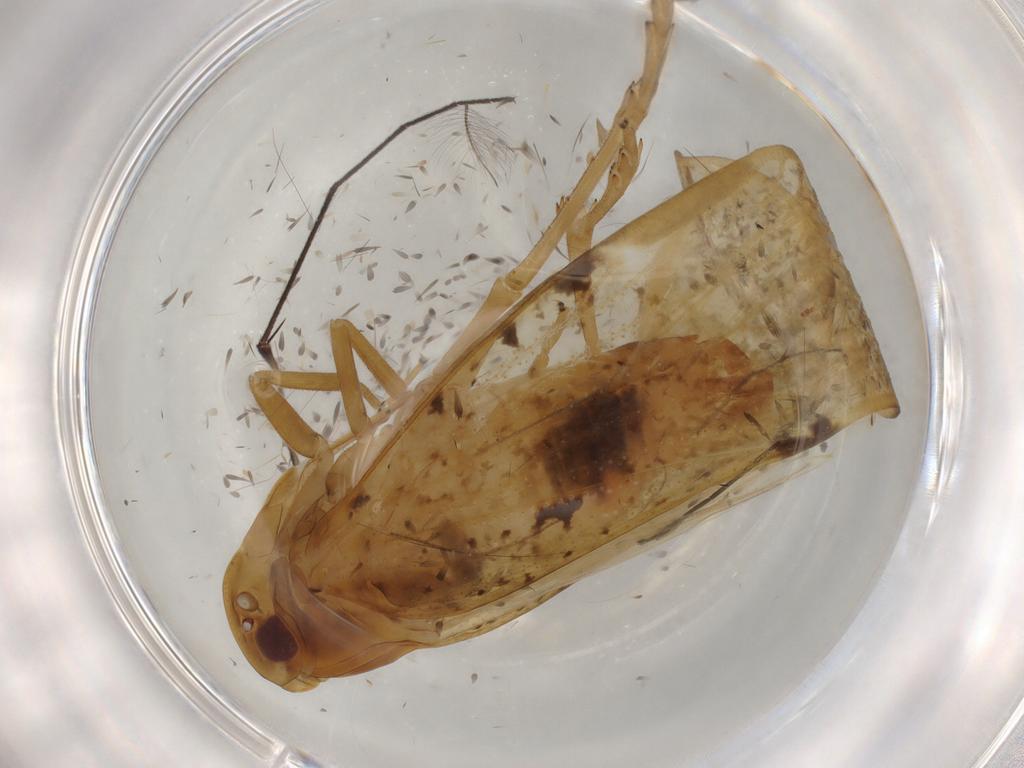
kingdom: Animalia
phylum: Arthropoda
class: Insecta
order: Hemiptera
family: Cixiidae
